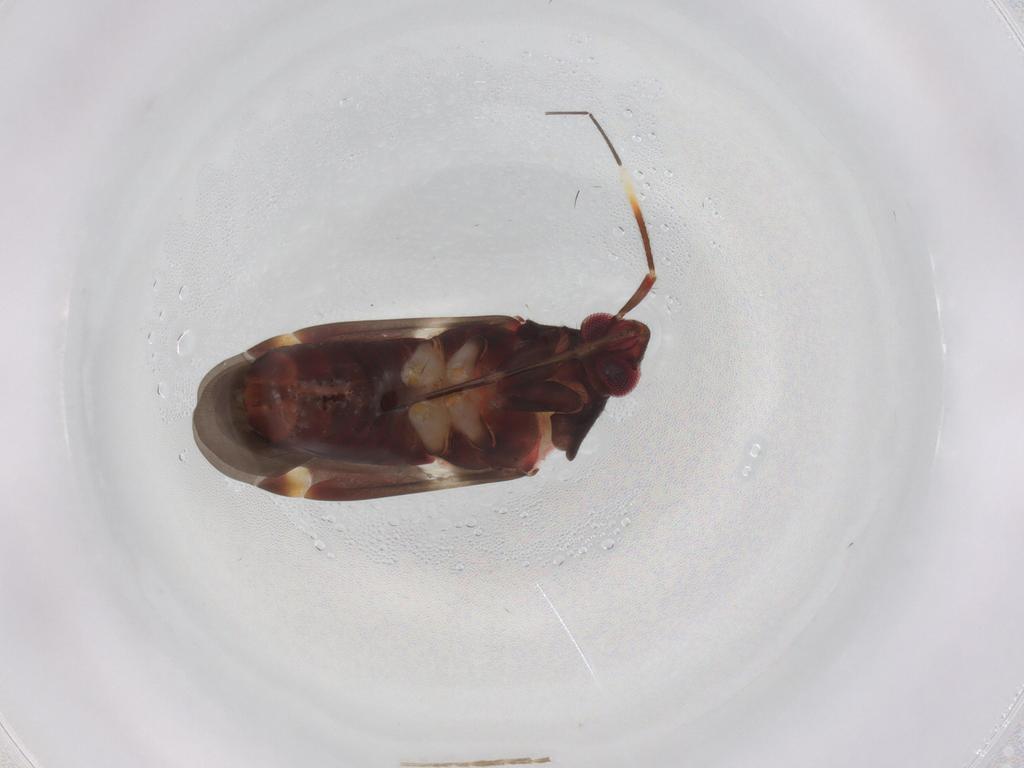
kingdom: Animalia
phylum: Arthropoda
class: Insecta
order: Hemiptera
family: Miridae
